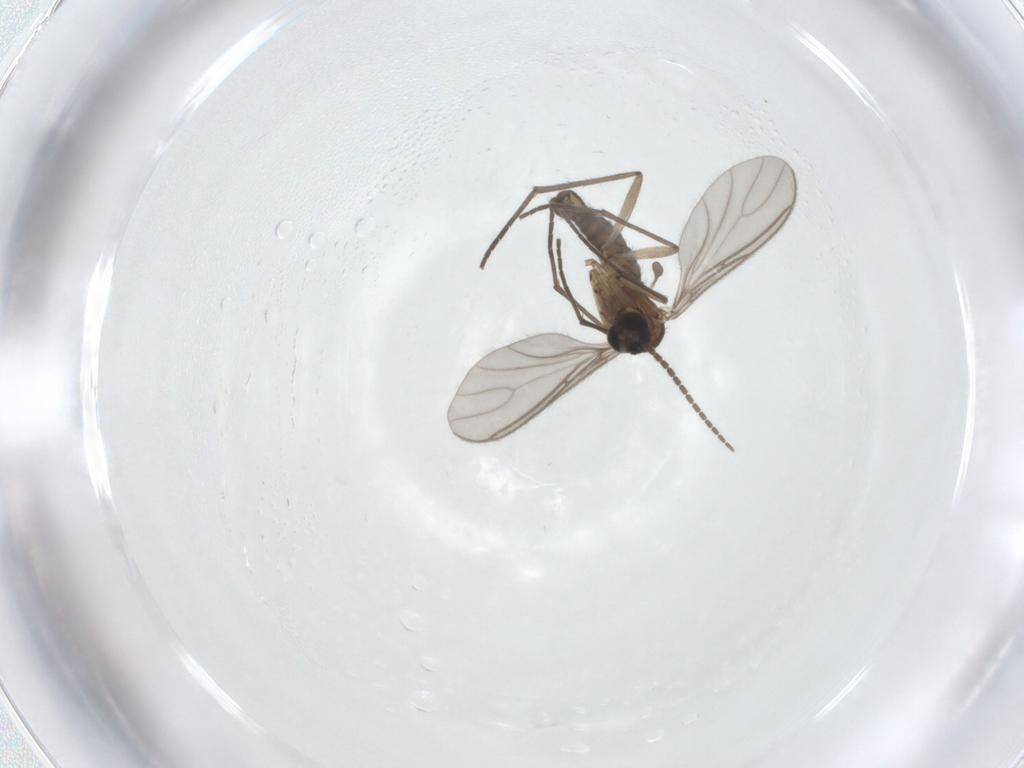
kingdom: Animalia
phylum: Arthropoda
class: Insecta
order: Diptera
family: Sciaridae
